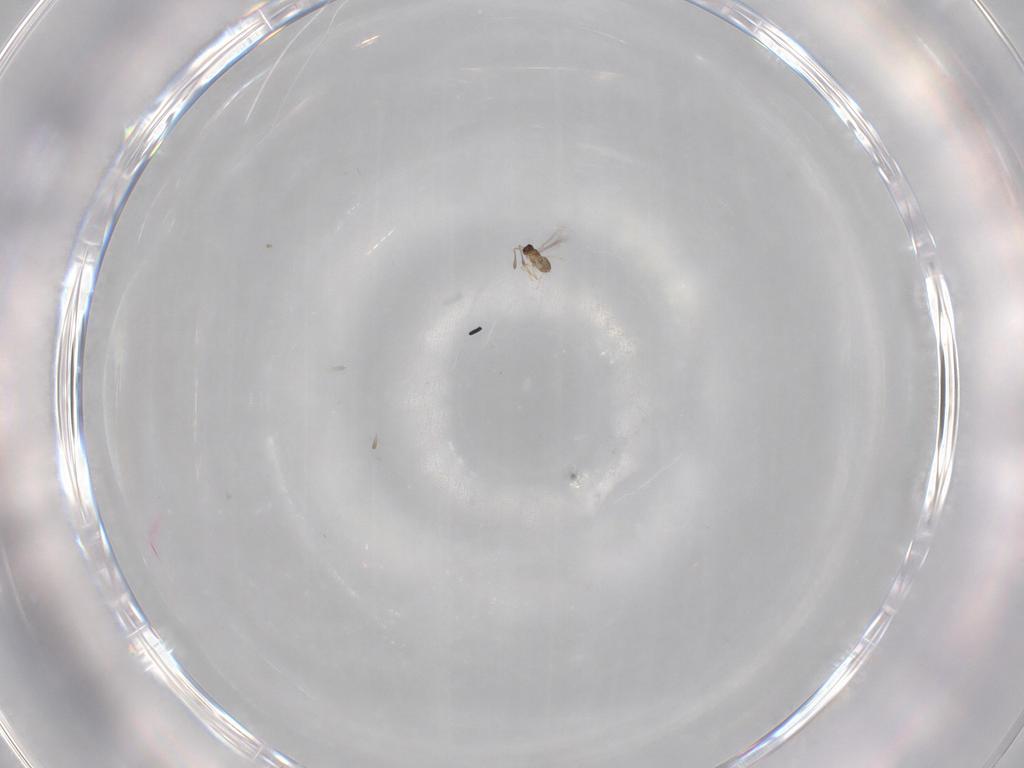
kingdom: Animalia
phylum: Arthropoda
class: Insecta
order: Hymenoptera
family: Mymaridae
